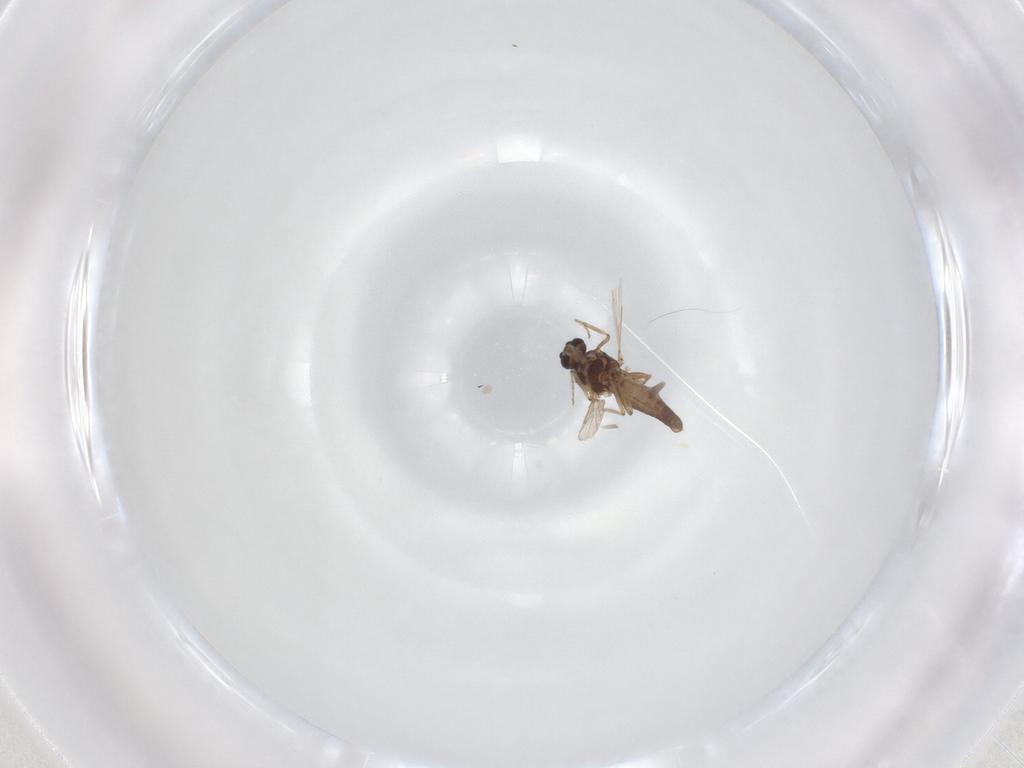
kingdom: Animalia
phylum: Arthropoda
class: Insecta
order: Diptera
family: Ceratopogonidae
